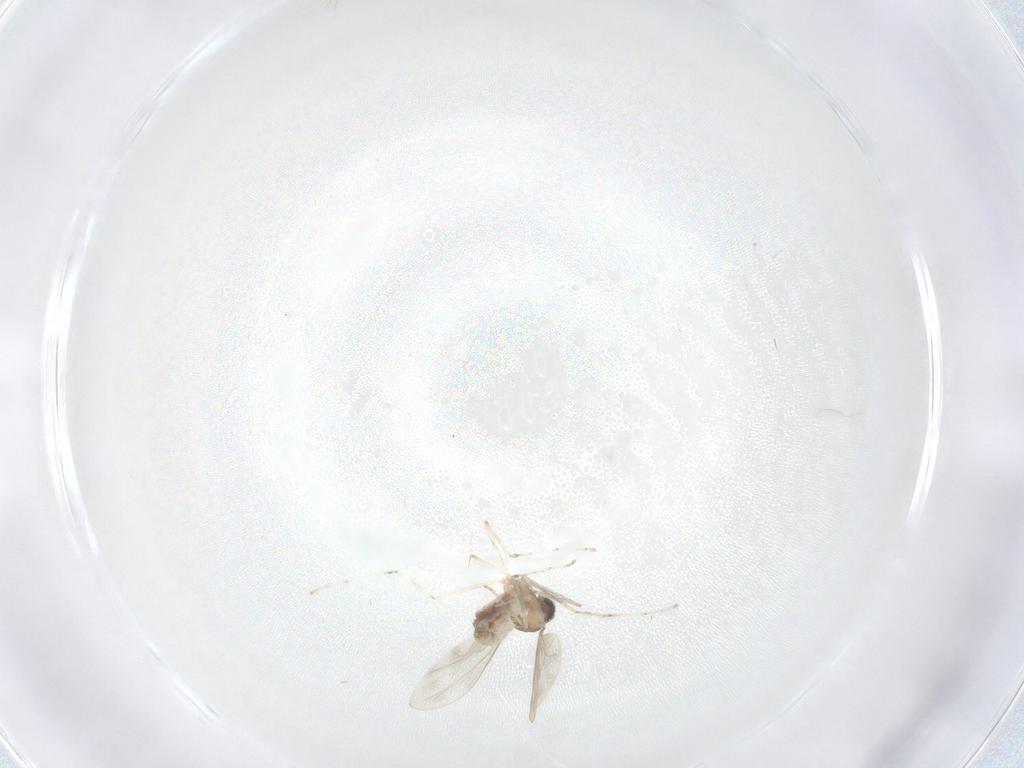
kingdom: Animalia
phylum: Arthropoda
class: Insecta
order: Diptera
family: Cecidomyiidae
